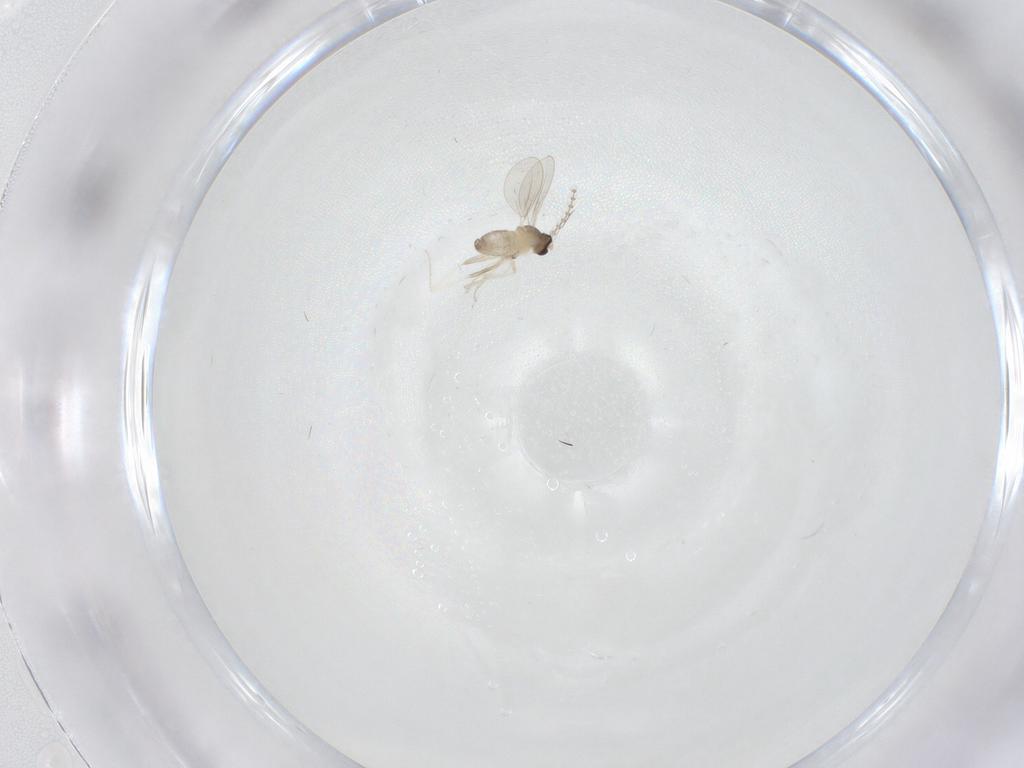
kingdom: Animalia
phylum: Arthropoda
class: Insecta
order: Diptera
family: Cecidomyiidae
